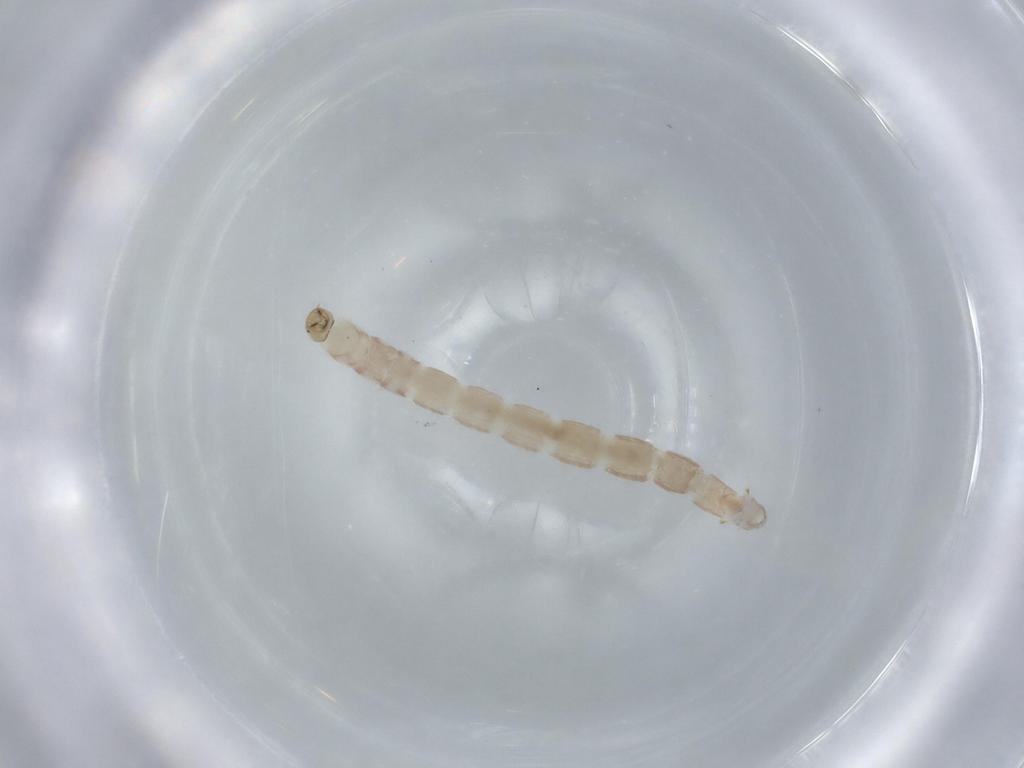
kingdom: Animalia
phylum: Arthropoda
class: Insecta
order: Diptera
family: Chironomidae
